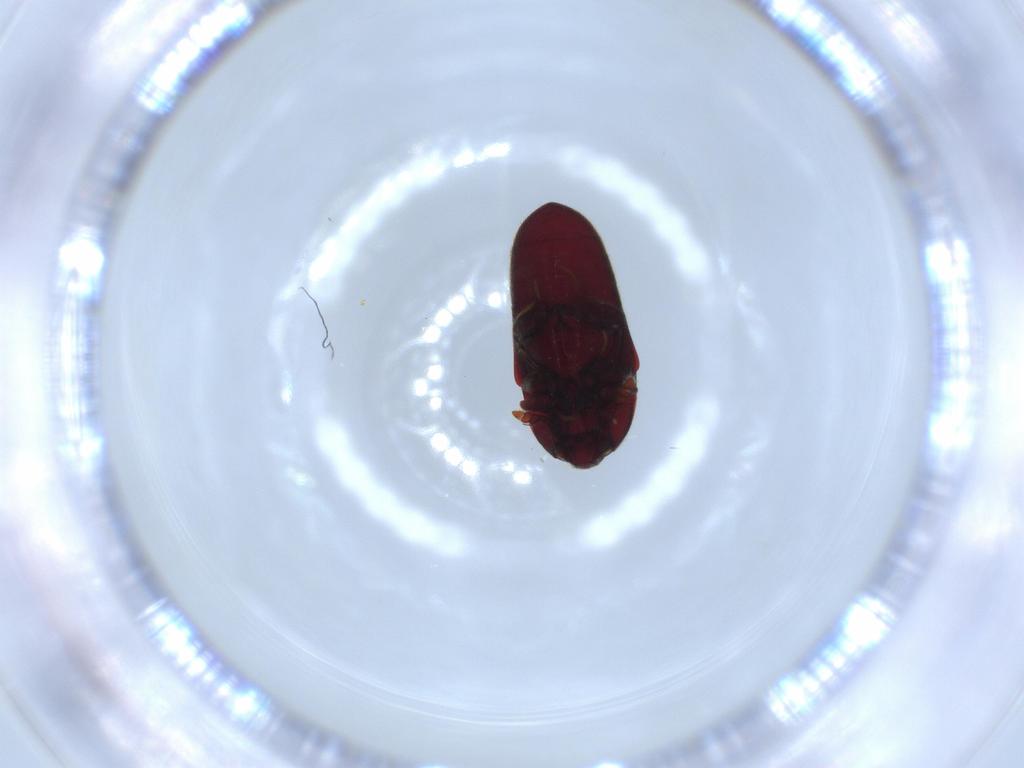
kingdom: Animalia
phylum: Arthropoda
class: Insecta
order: Coleoptera
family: Throscidae
